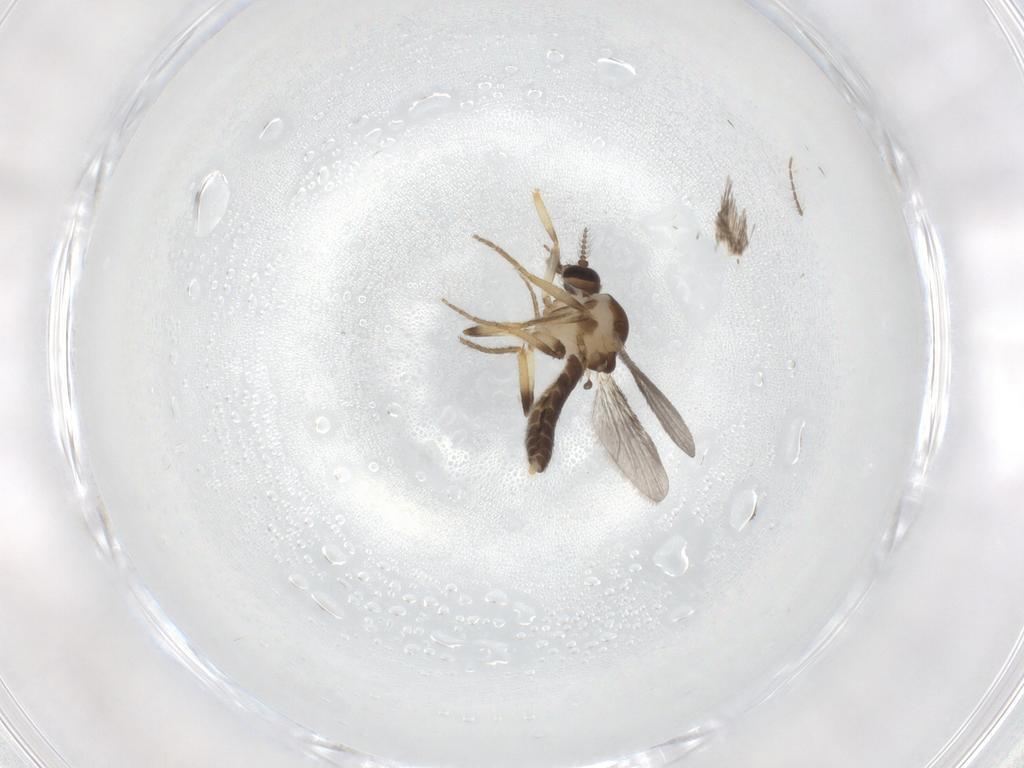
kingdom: Animalia
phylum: Arthropoda
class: Insecta
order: Diptera
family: Ceratopogonidae
